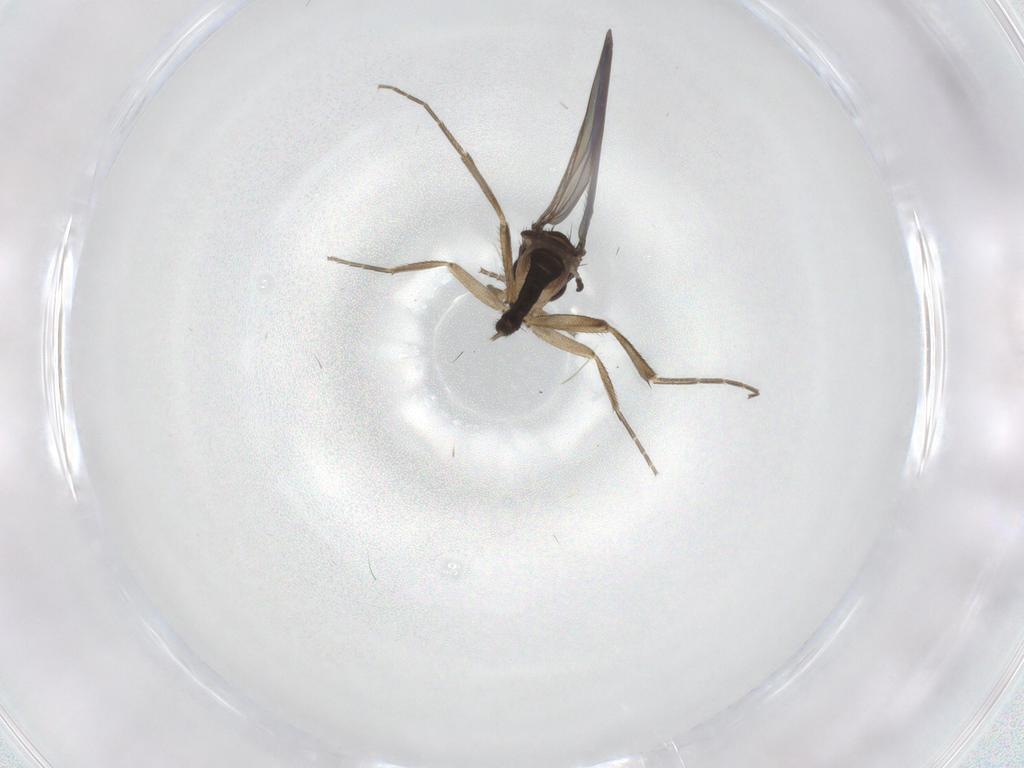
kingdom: Animalia
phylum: Arthropoda
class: Insecta
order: Diptera
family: Phoridae
